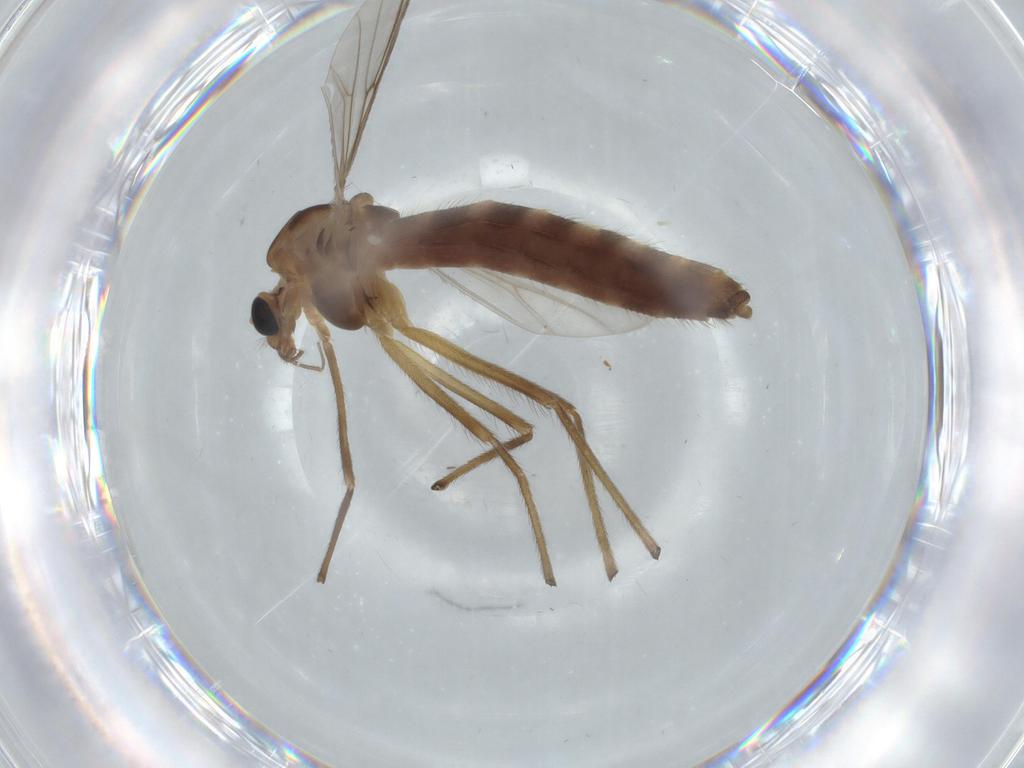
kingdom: Animalia
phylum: Arthropoda
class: Insecta
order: Diptera
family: Chironomidae
